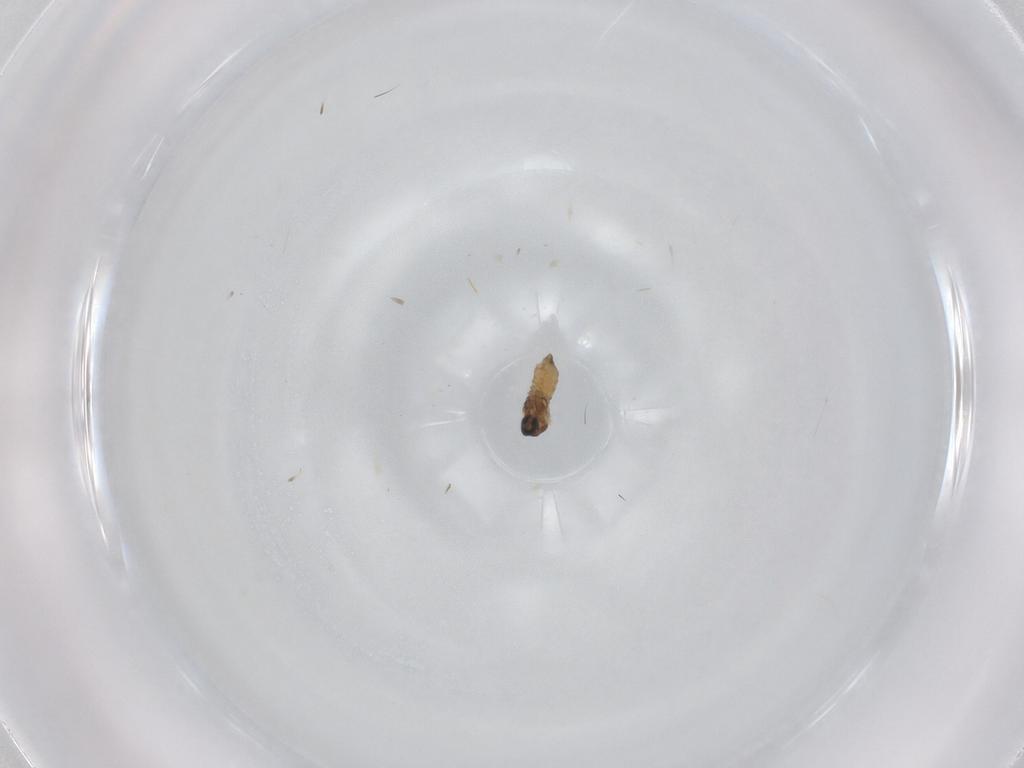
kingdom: Animalia
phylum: Arthropoda
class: Insecta
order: Diptera
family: Cecidomyiidae
